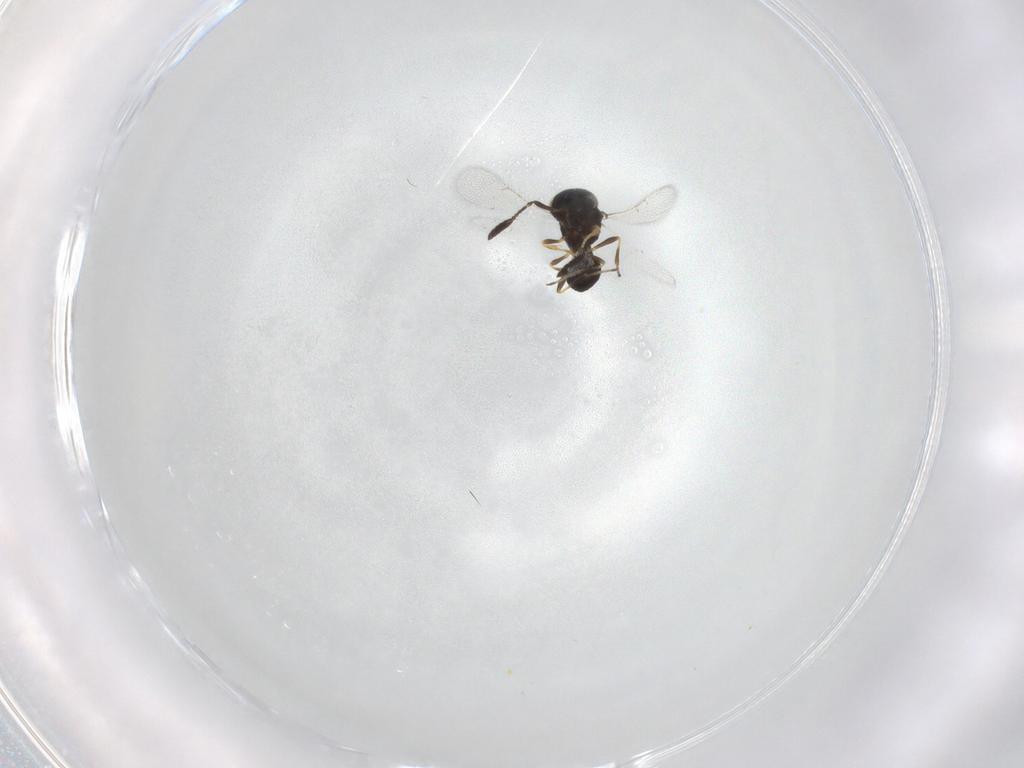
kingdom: Animalia
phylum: Arthropoda
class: Insecta
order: Hymenoptera
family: Scelionidae
